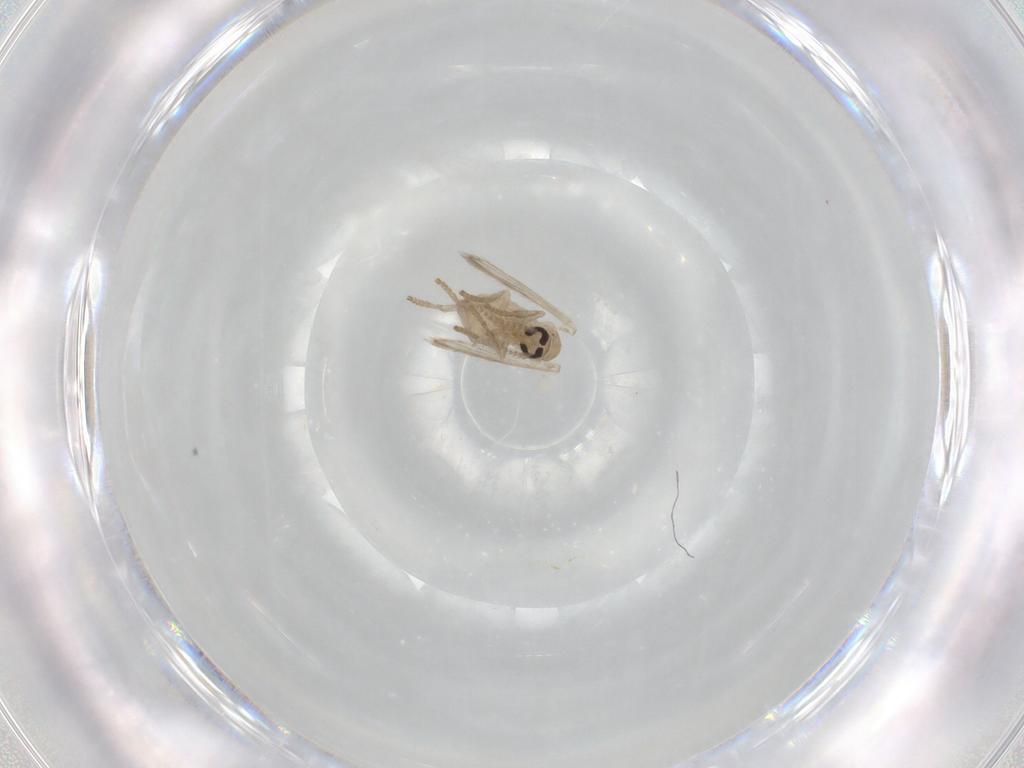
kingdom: Animalia
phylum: Arthropoda
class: Insecta
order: Diptera
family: Psychodidae
